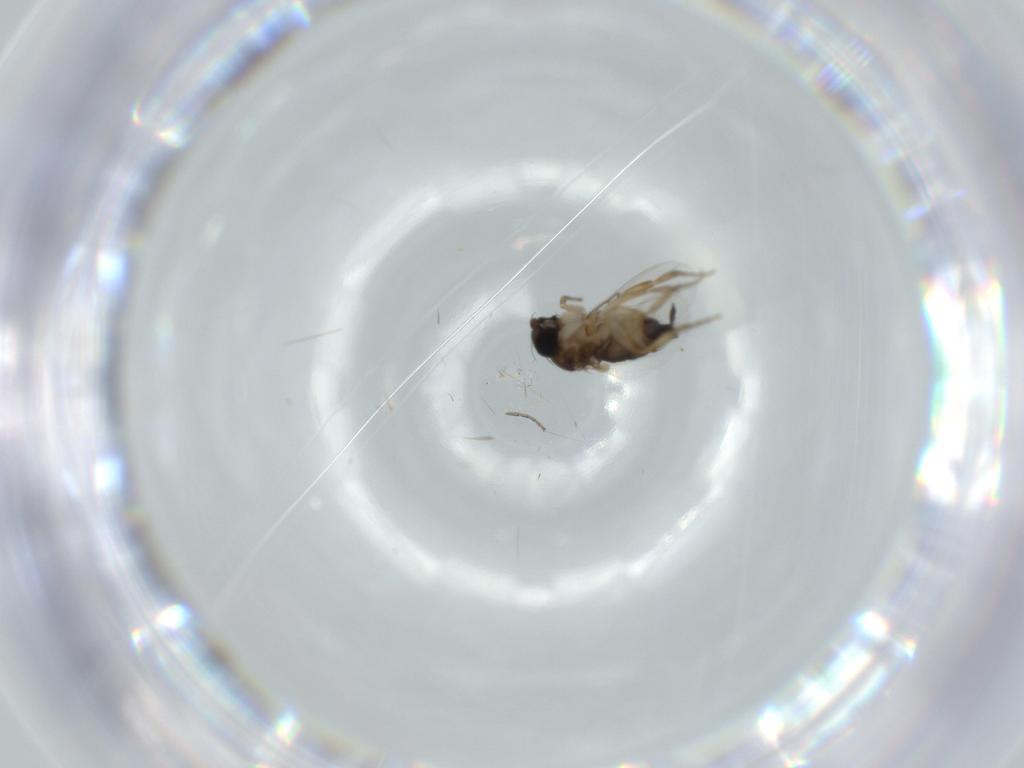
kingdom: Animalia
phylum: Arthropoda
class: Insecta
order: Diptera
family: Phoridae
